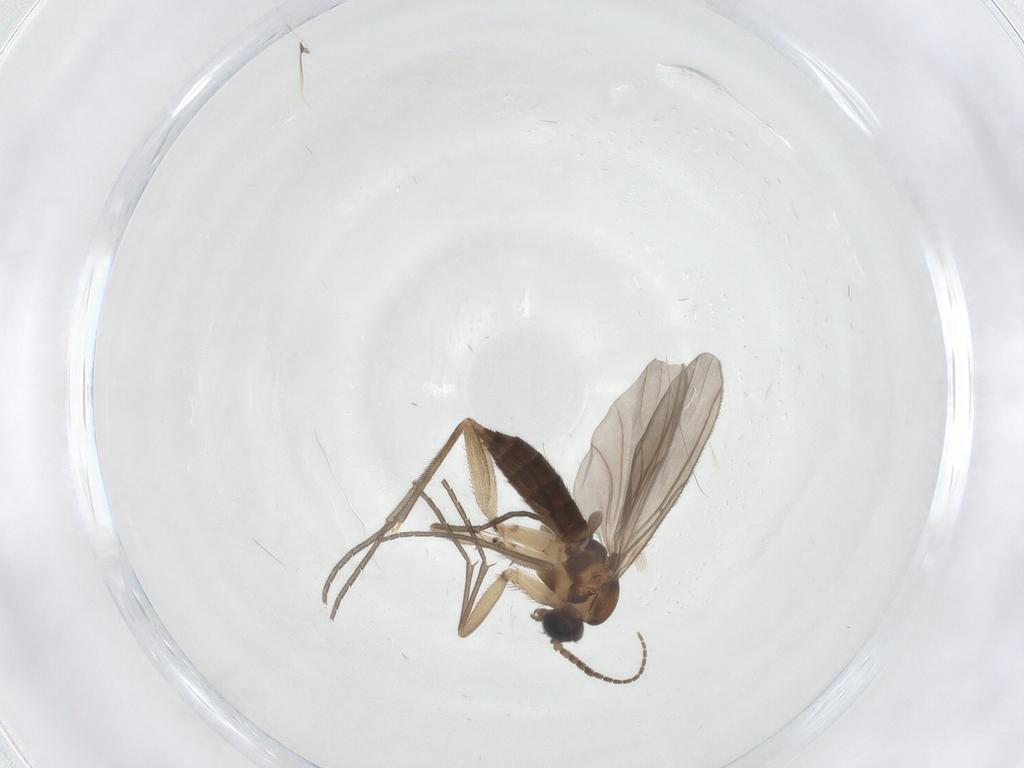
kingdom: Animalia
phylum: Arthropoda
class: Insecta
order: Diptera
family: Sciaridae
